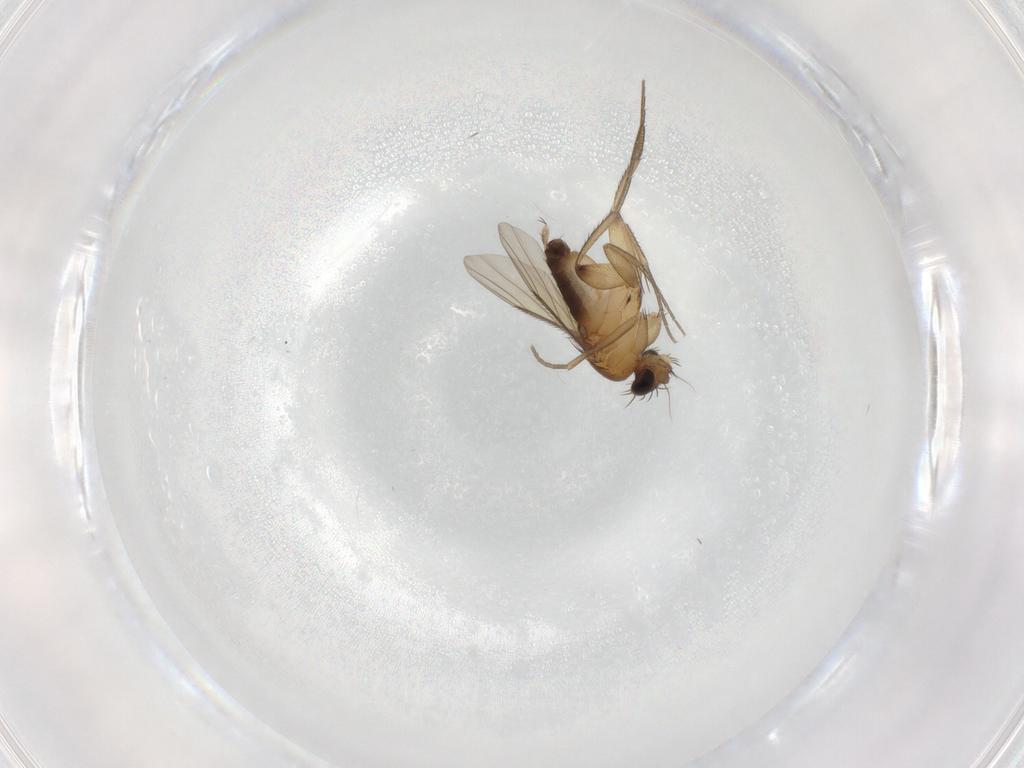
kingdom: Animalia
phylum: Arthropoda
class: Insecta
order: Diptera
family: Phoridae
